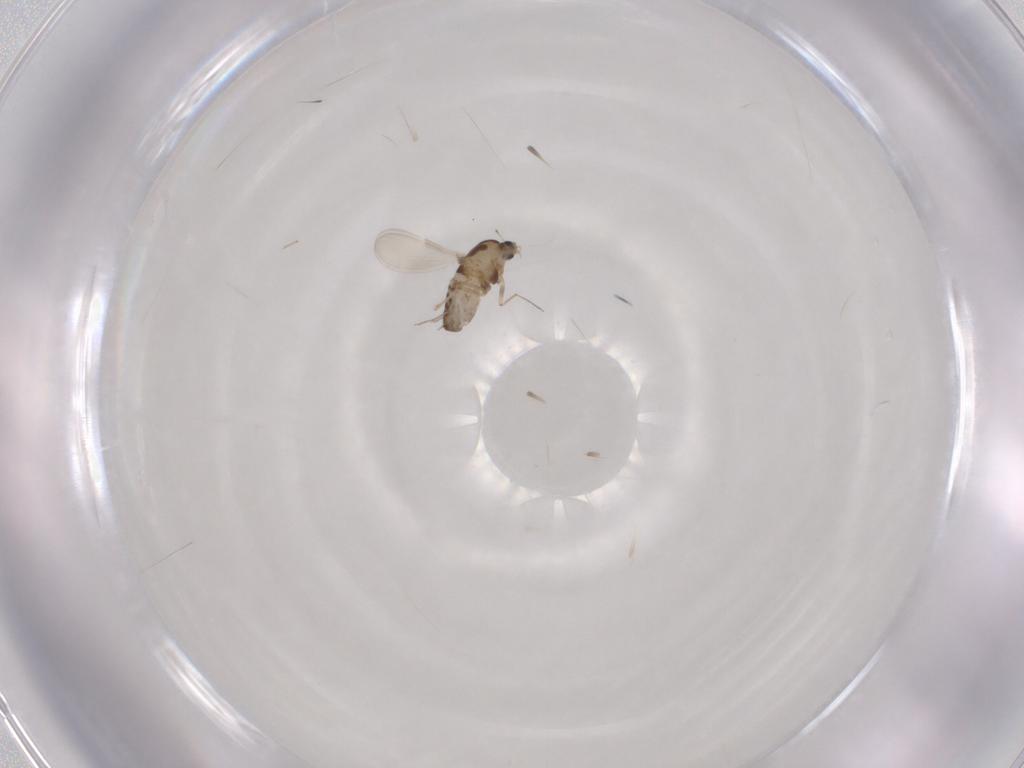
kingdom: Animalia
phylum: Arthropoda
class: Insecta
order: Diptera
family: Chironomidae
